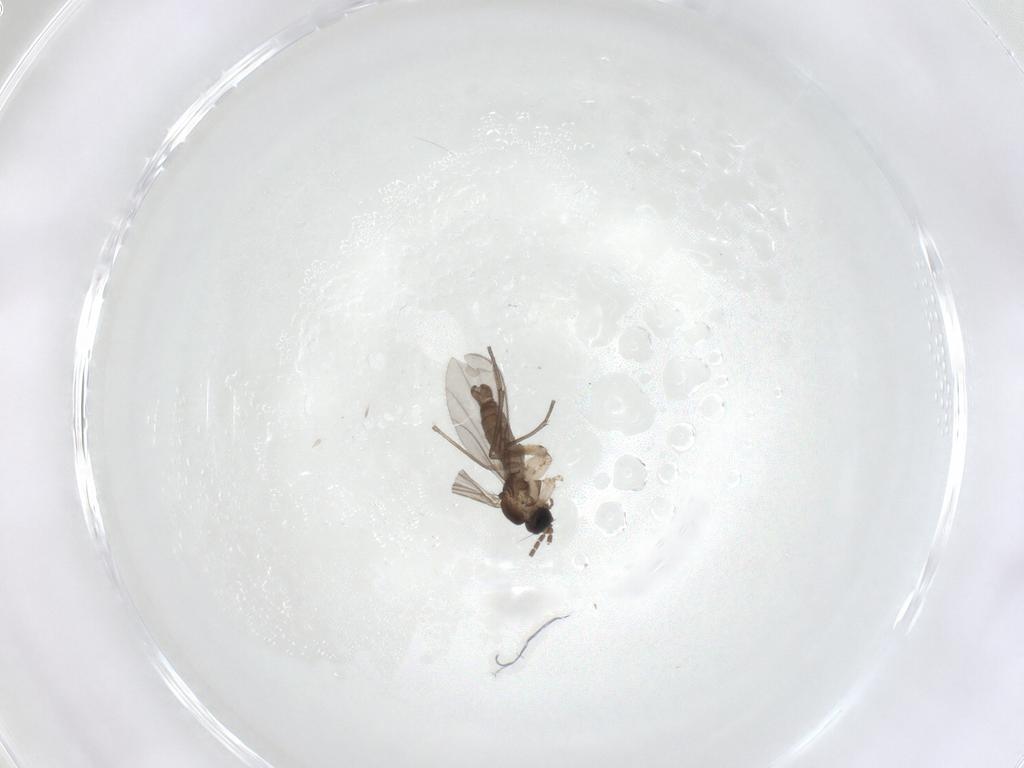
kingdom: Animalia
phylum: Arthropoda
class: Insecta
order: Diptera
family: Sciaridae
